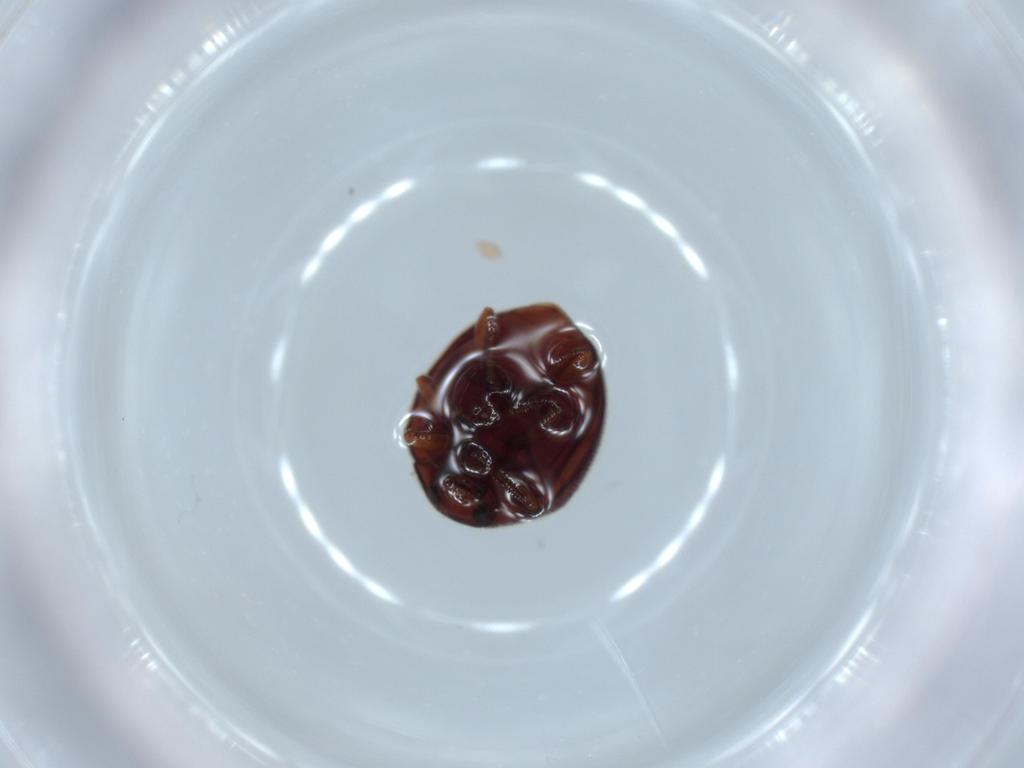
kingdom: Animalia
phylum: Arthropoda
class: Insecta
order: Coleoptera
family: Coccinellidae
